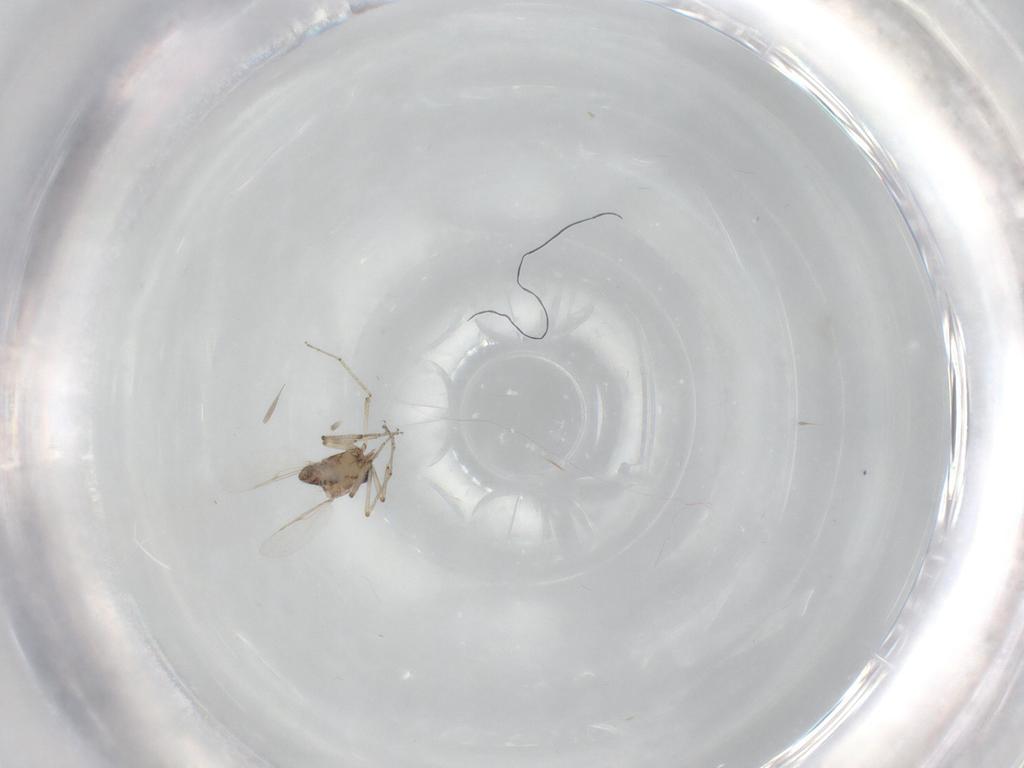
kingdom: Animalia
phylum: Arthropoda
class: Insecta
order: Diptera
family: Ceratopogonidae
